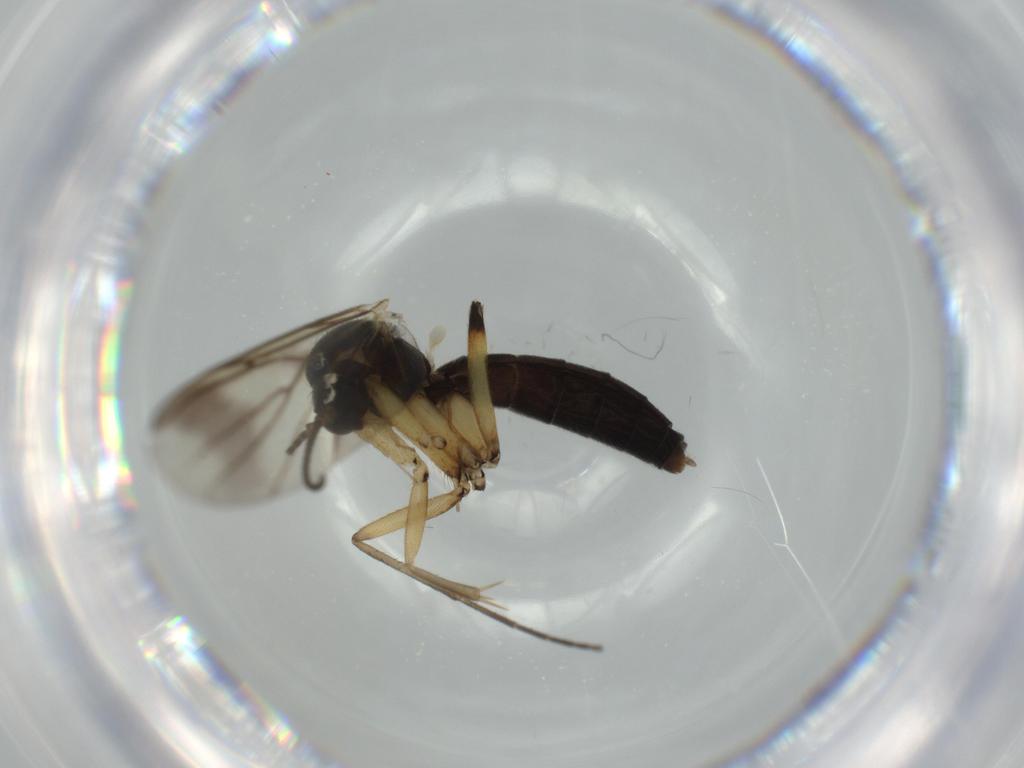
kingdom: Animalia
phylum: Arthropoda
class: Insecta
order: Diptera
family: Mycetophilidae
